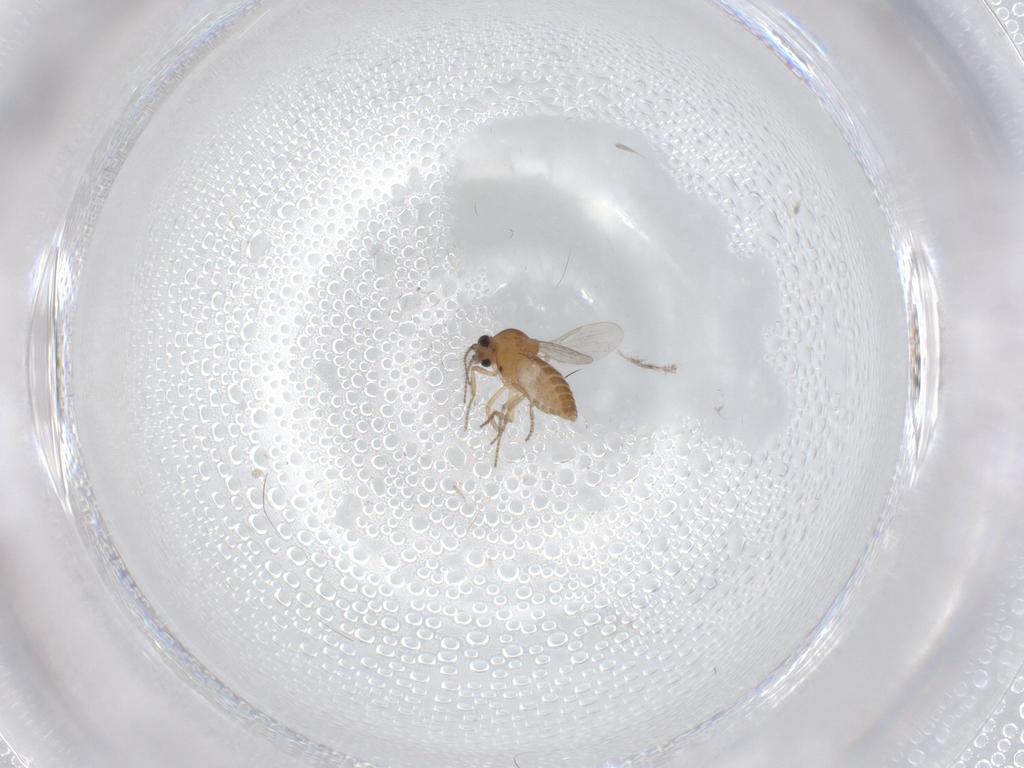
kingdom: Animalia
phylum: Arthropoda
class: Insecta
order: Diptera
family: Ceratopogonidae
